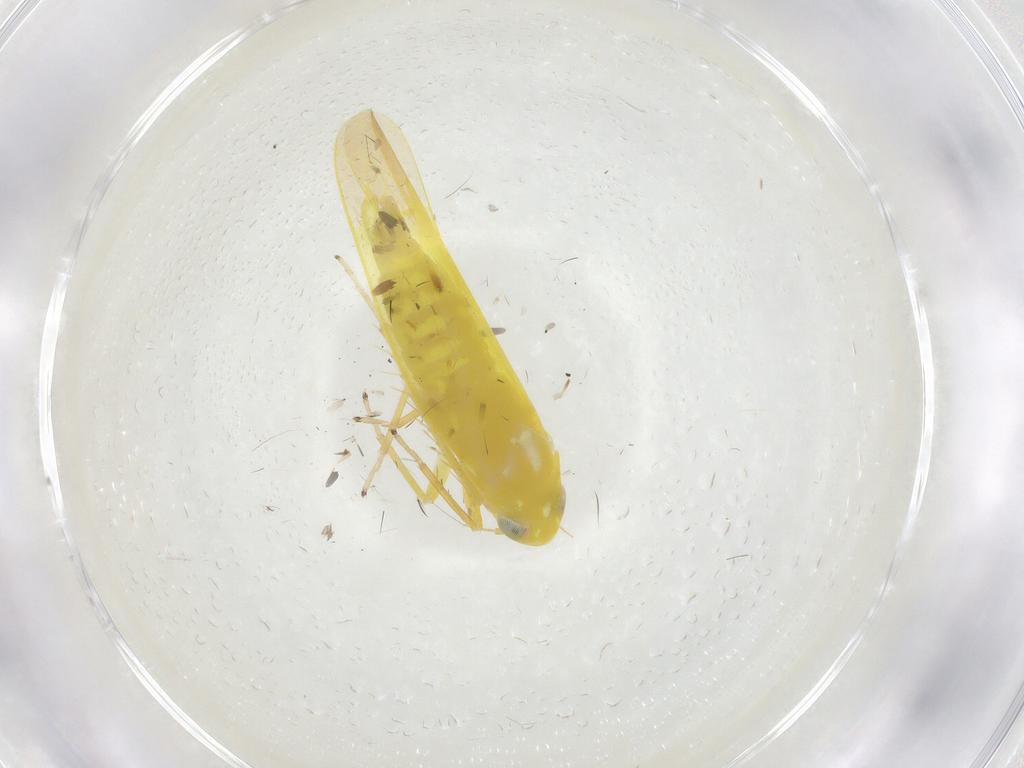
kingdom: Animalia
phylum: Arthropoda
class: Insecta
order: Hemiptera
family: Cicadellidae
